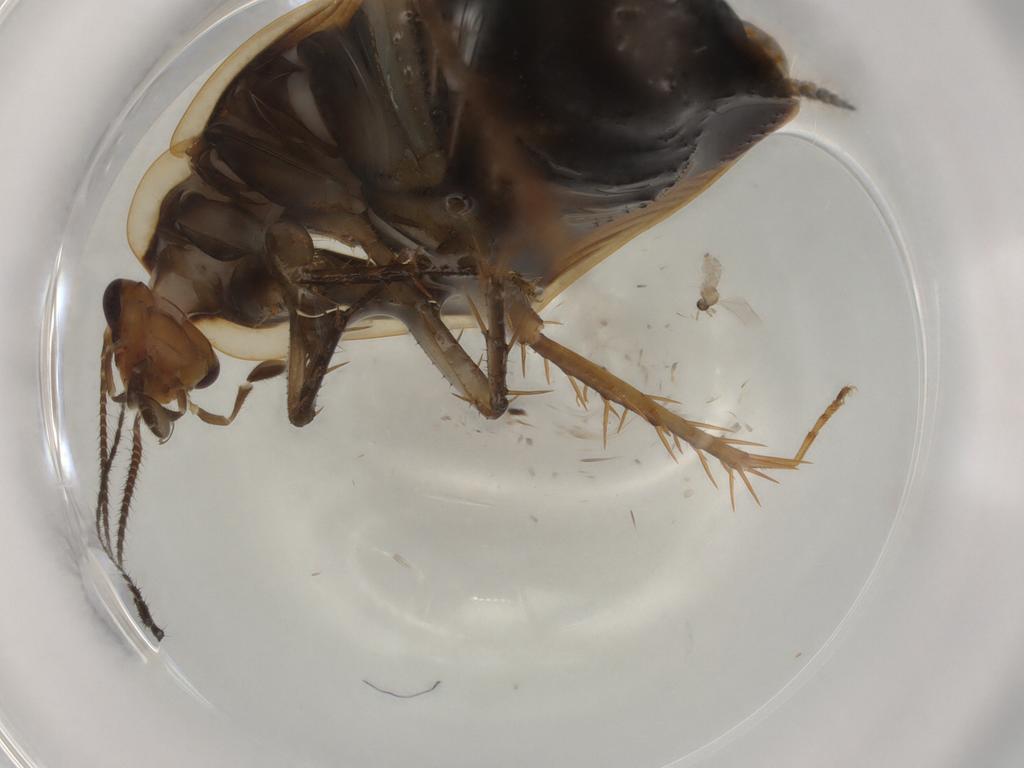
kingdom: Animalia
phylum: Arthropoda
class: Insecta
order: Blattodea
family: Ectobiidae
